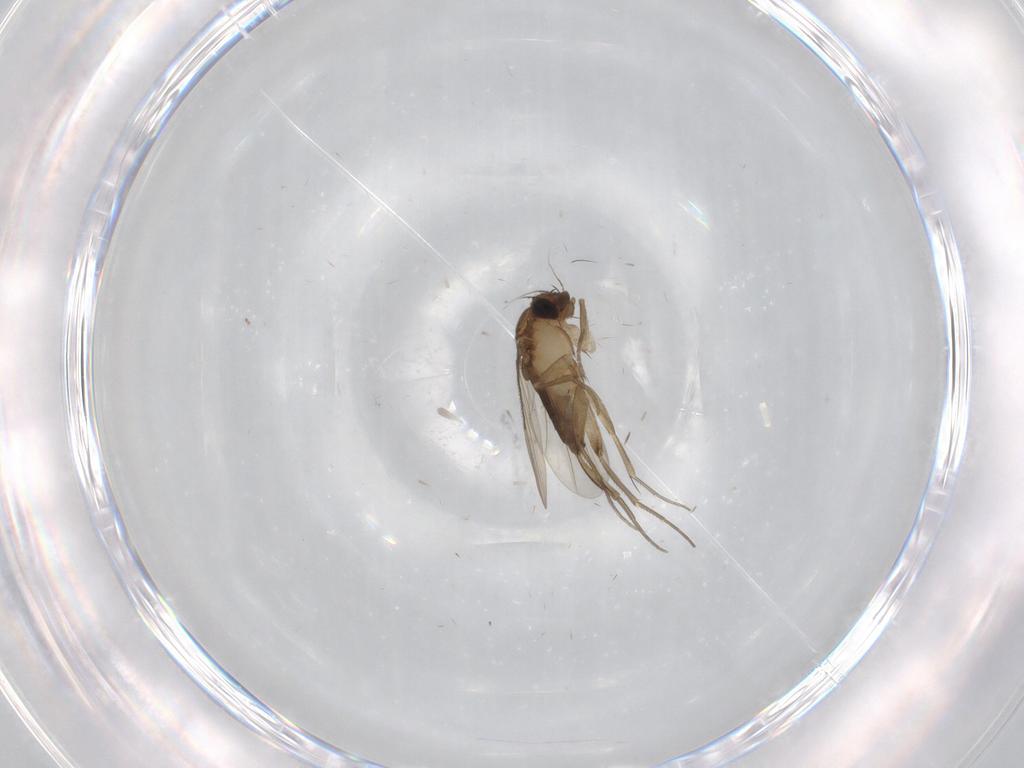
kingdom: Animalia
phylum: Arthropoda
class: Insecta
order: Diptera
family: Phoridae
